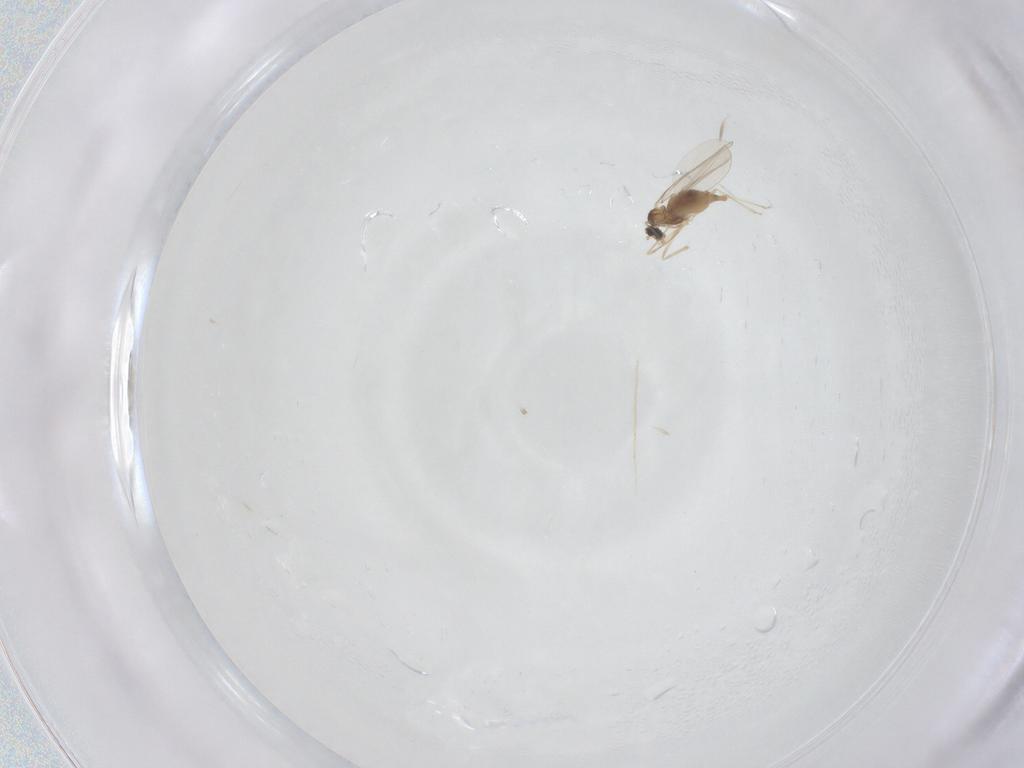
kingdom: Animalia
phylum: Arthropoda
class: Insecta
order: Diptera
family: Cecidomyiidae
